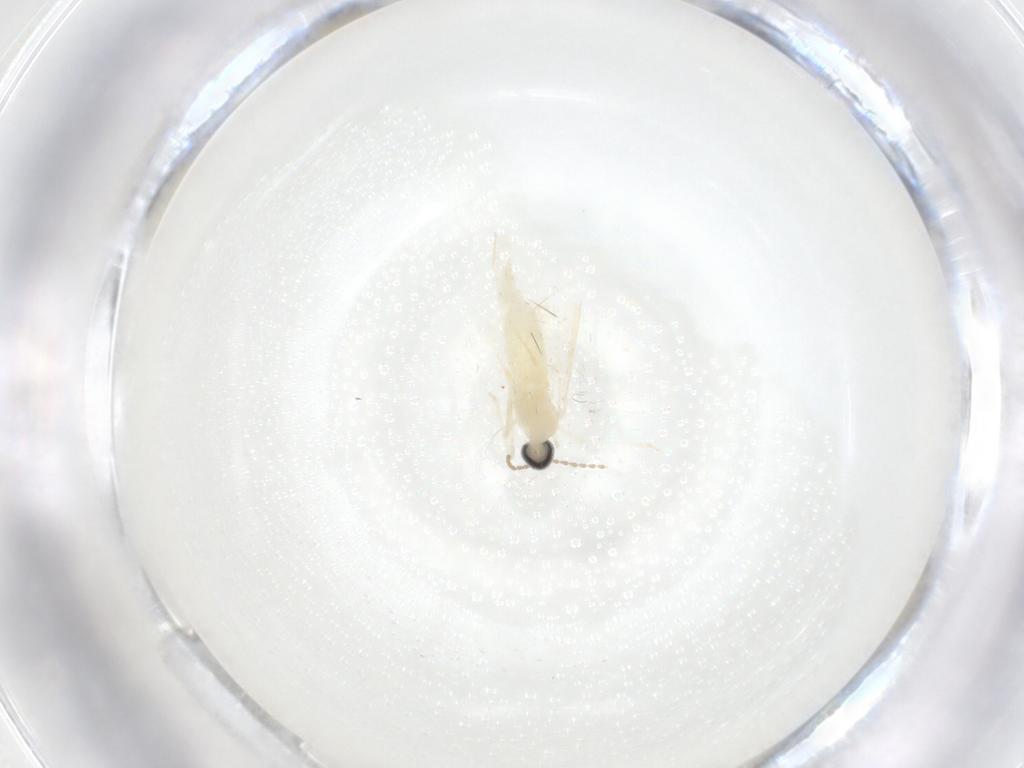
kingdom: Animalia
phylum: Arthropoda
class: Insecta
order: Diptera
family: Cecidomyiidae
